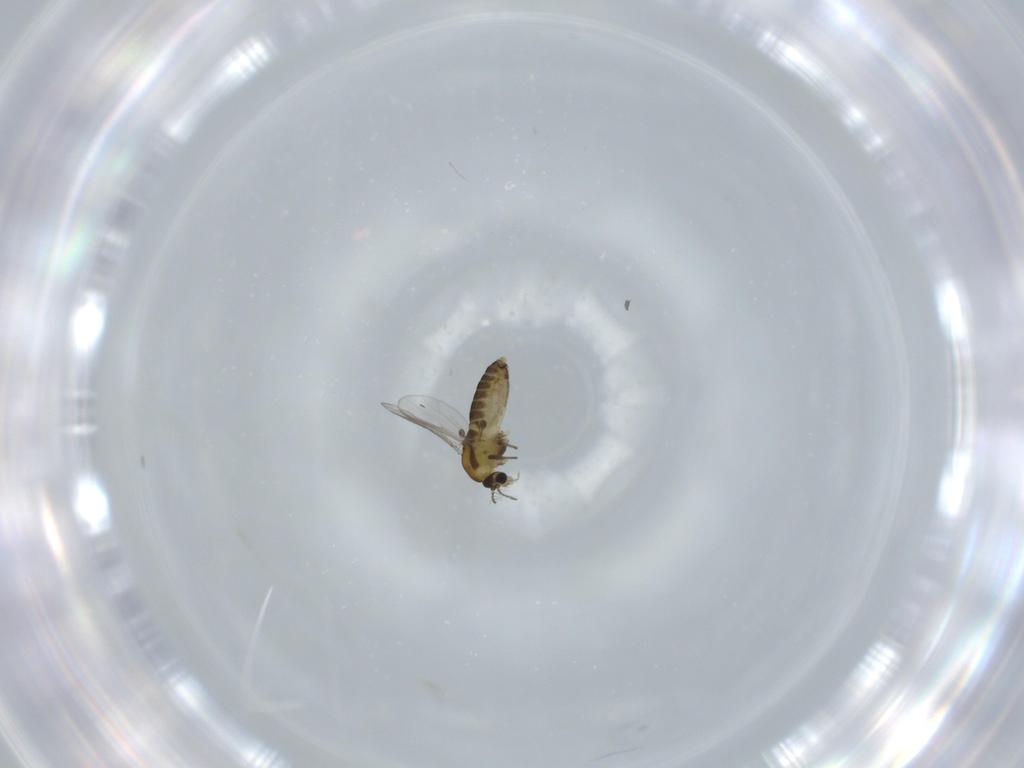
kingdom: Animalia
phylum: Arthropoda
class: Insecta
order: Diptera
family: Chironomidae
